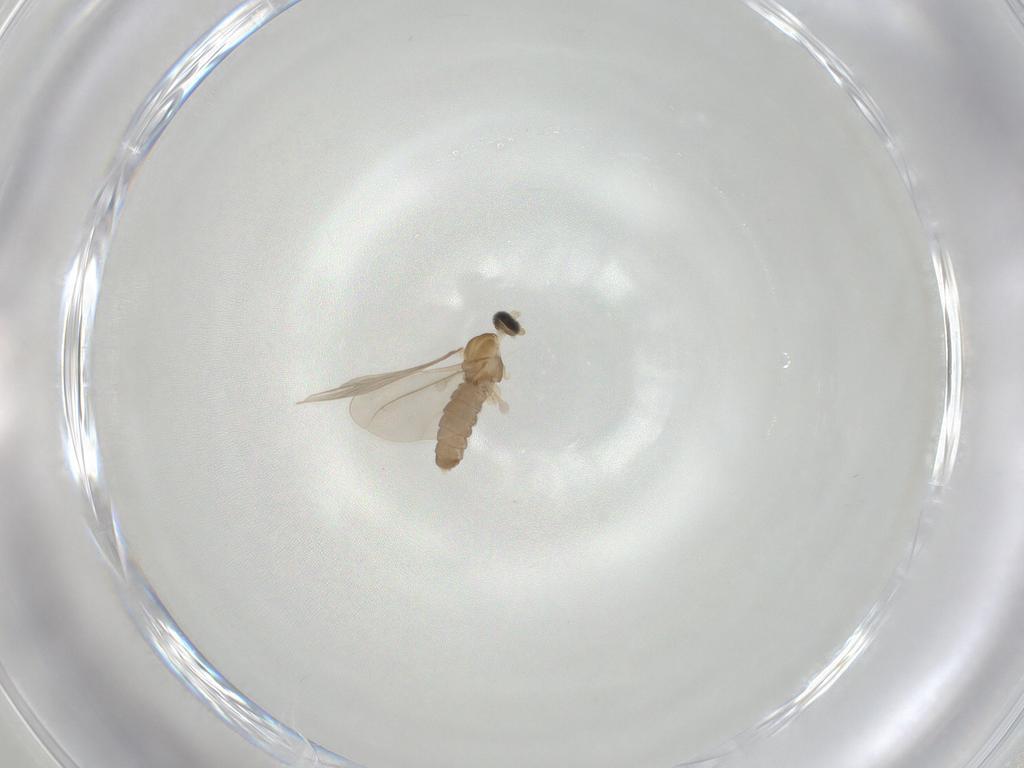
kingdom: Animalia
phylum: Arthropoda
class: Insecta
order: Diptera
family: Cecidomyiidae
